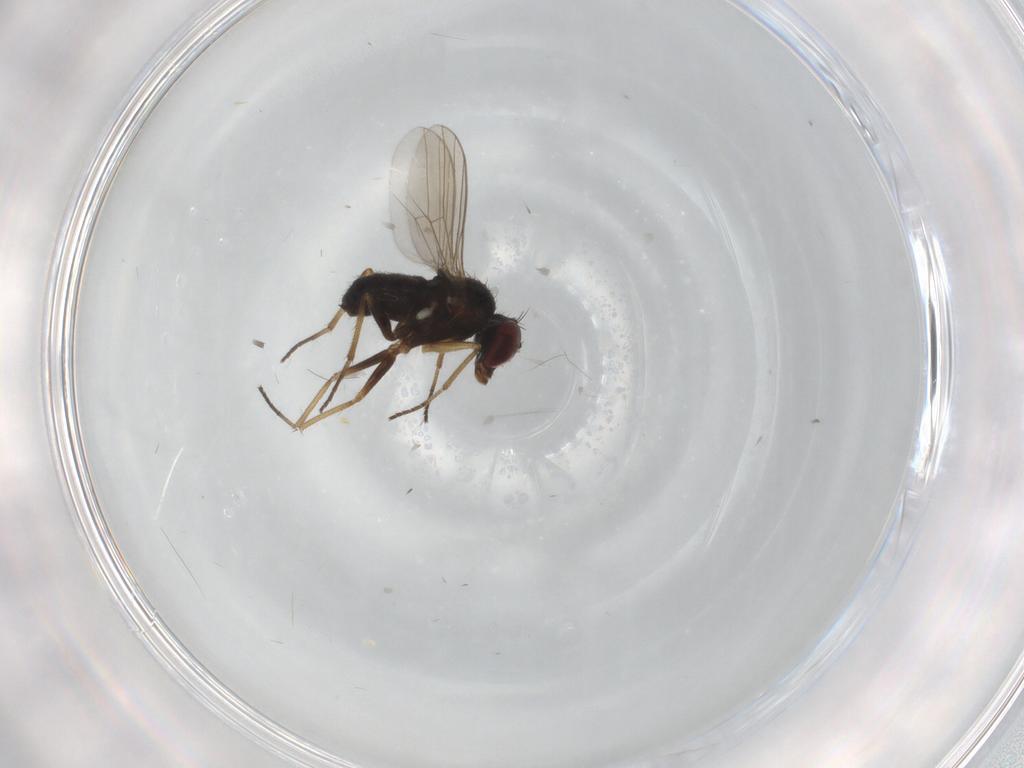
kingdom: Animalia
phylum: Arthropoda
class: Insecta
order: Diptera
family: Dolichopodidae
